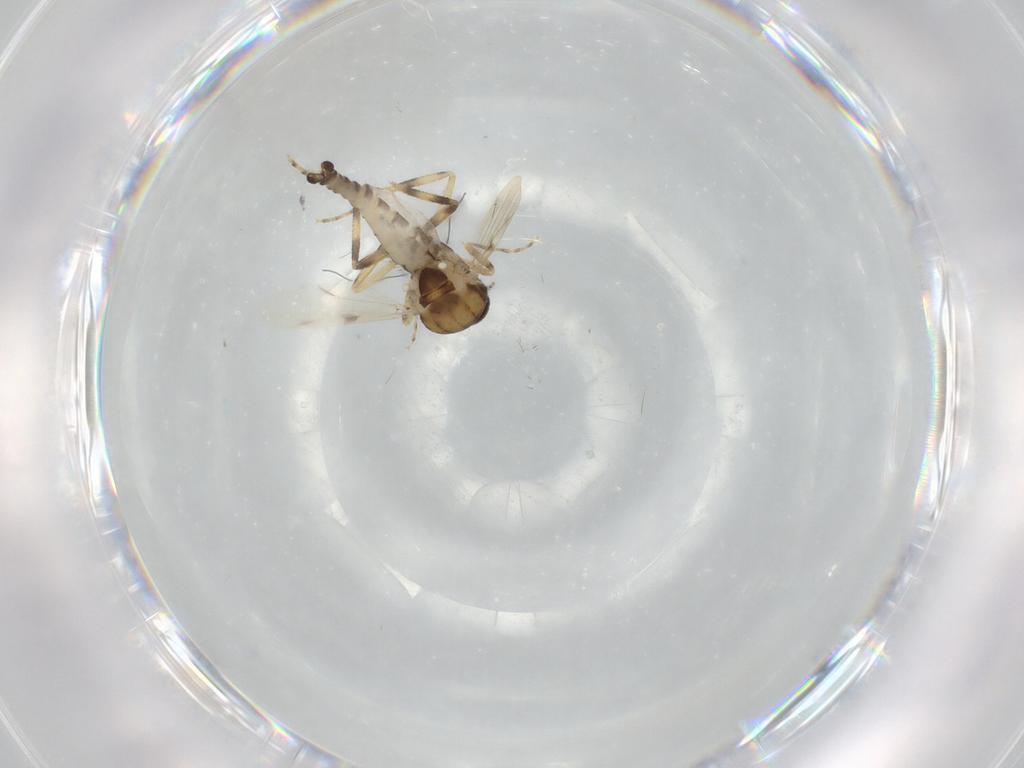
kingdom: Animalia
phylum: Arthropoda
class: Insecta
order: Diptera
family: Ceratopogonidae
